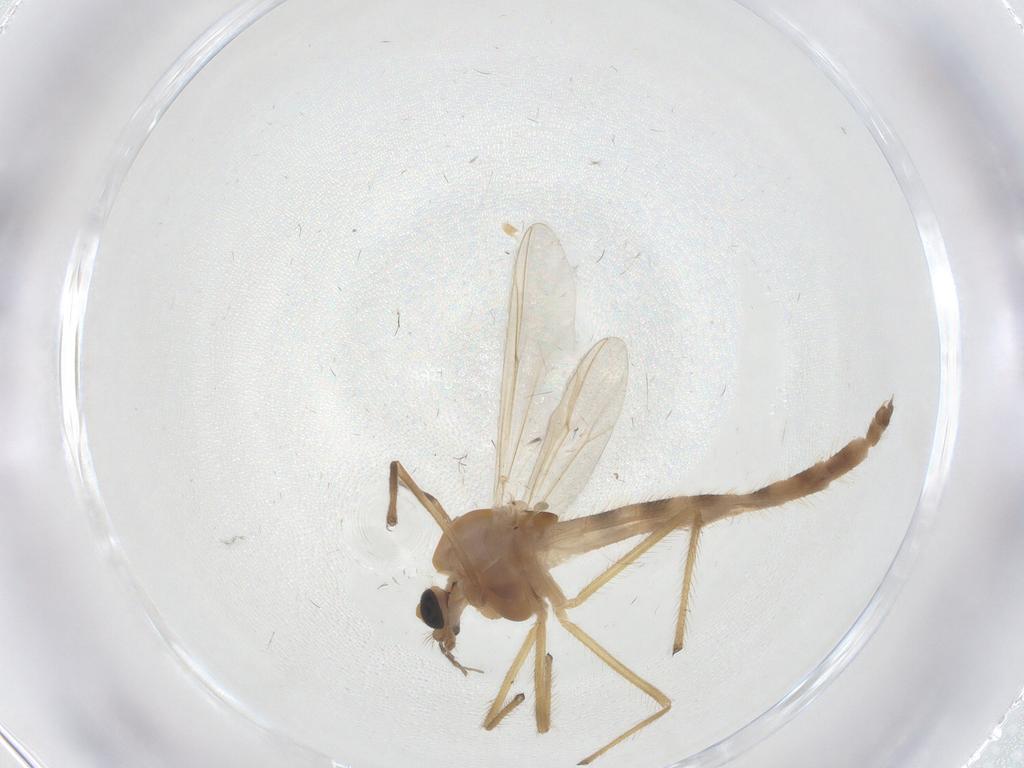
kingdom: Animalia
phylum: Arthropoda
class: Insecta
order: Diptera
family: Chironomidae
